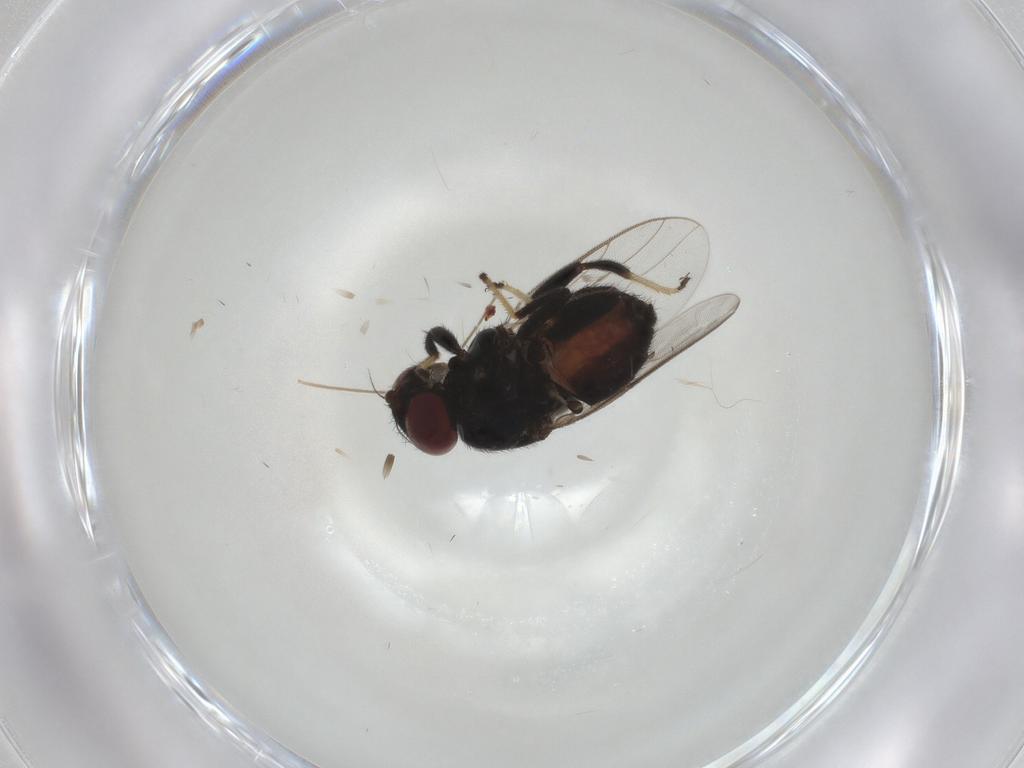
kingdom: Animalia
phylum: Arthropoda
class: Insecta
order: Diptera
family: Chloropidae
